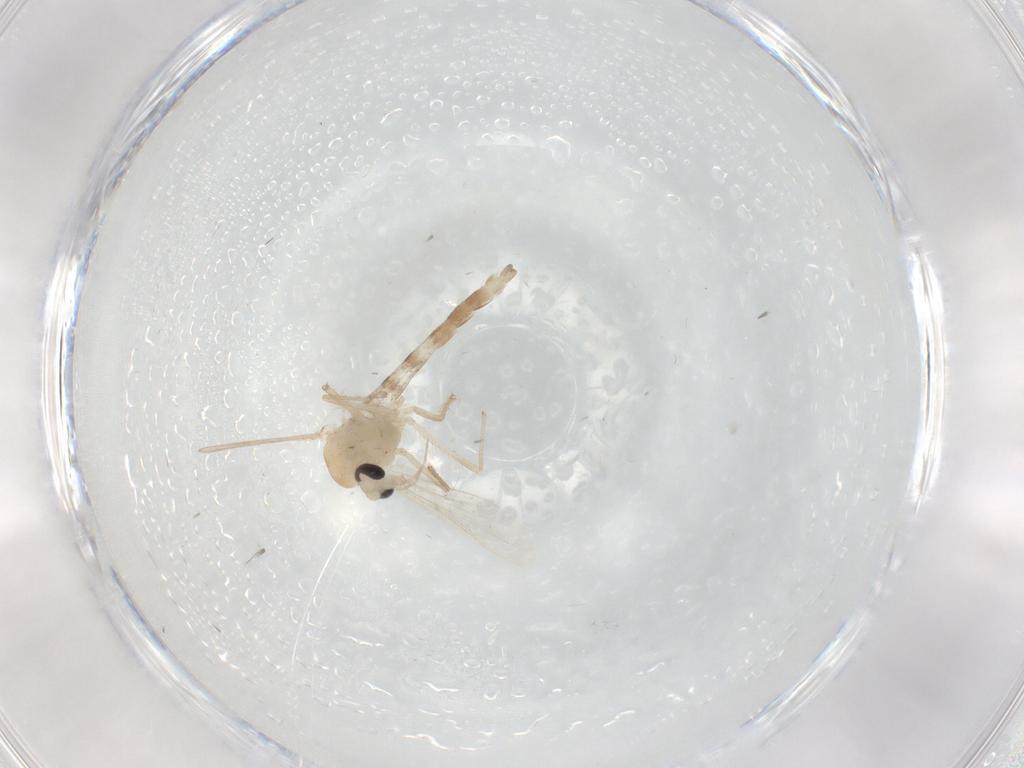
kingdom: Animalia
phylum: Arthropoda
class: Insecta
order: Diptera
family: Chironomidae
